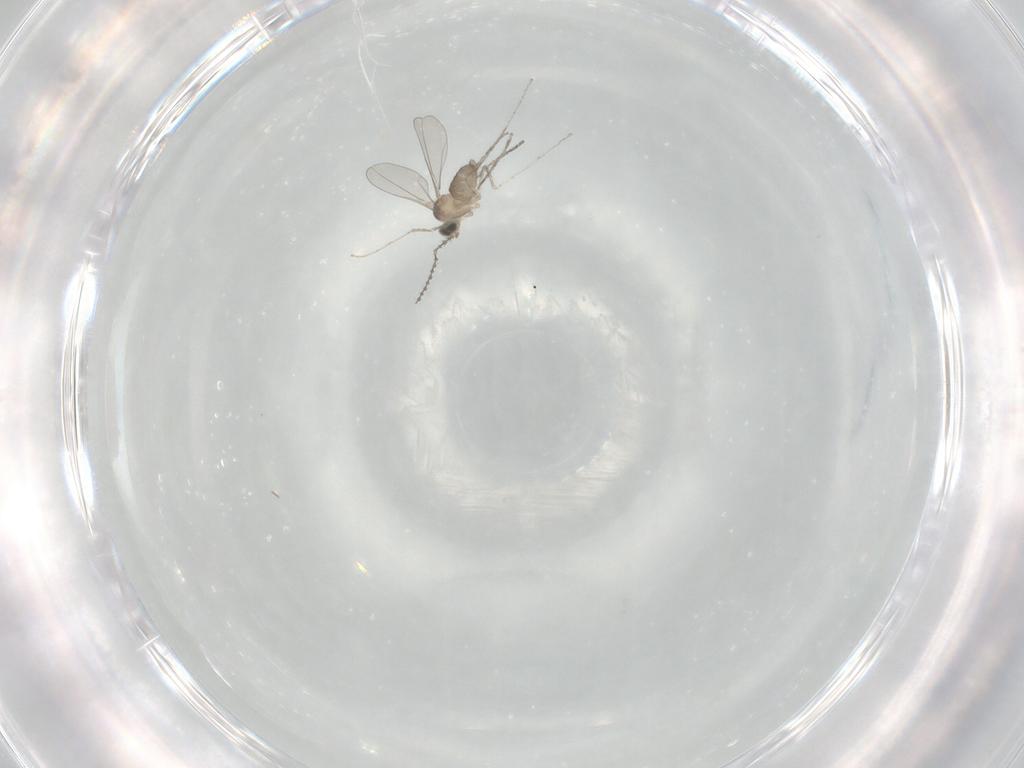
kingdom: Animalia
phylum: Arthropoda
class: Insecta
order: Diptera
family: Cecidomyiidae
